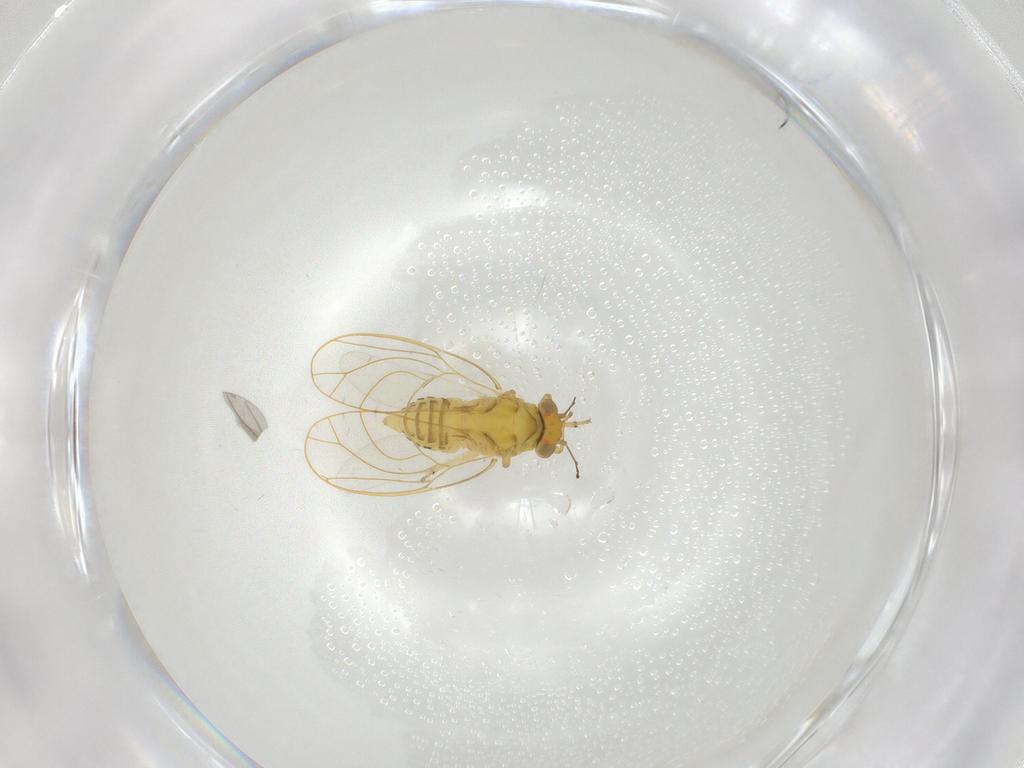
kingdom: Animalia
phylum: Arthropoda
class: Insecta
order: Hemiptera
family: Psylloidea_incertae_sedis
